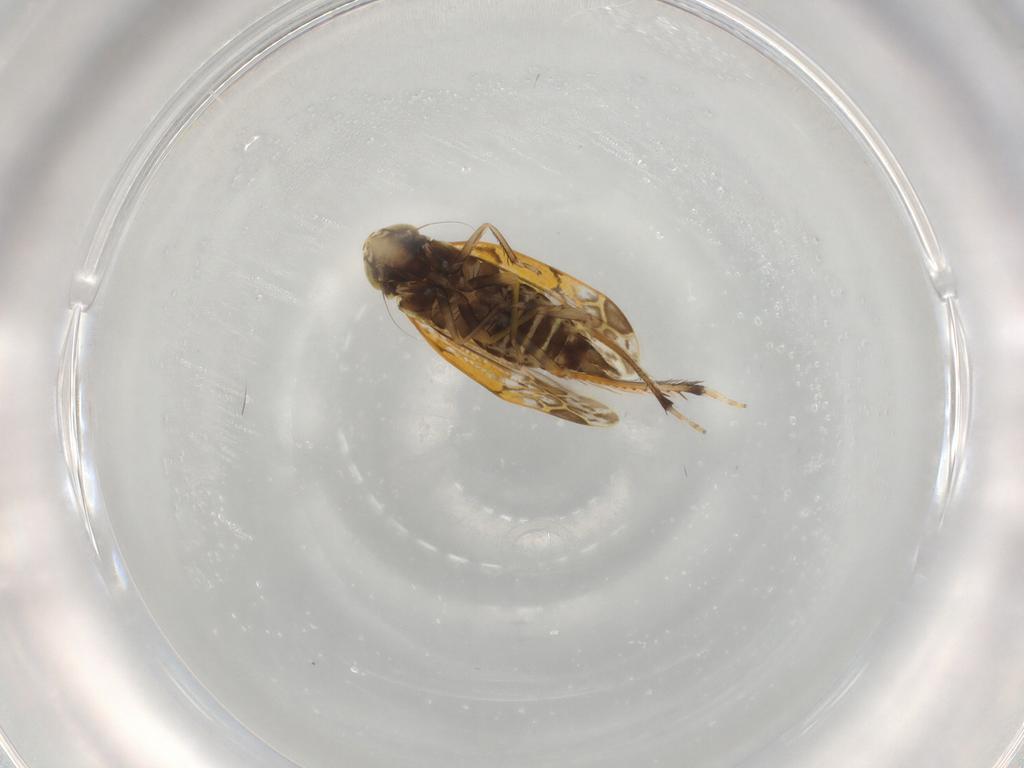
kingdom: Animalia
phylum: Arthropoda
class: Insecta
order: Hemiptera
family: Cicadellidae
